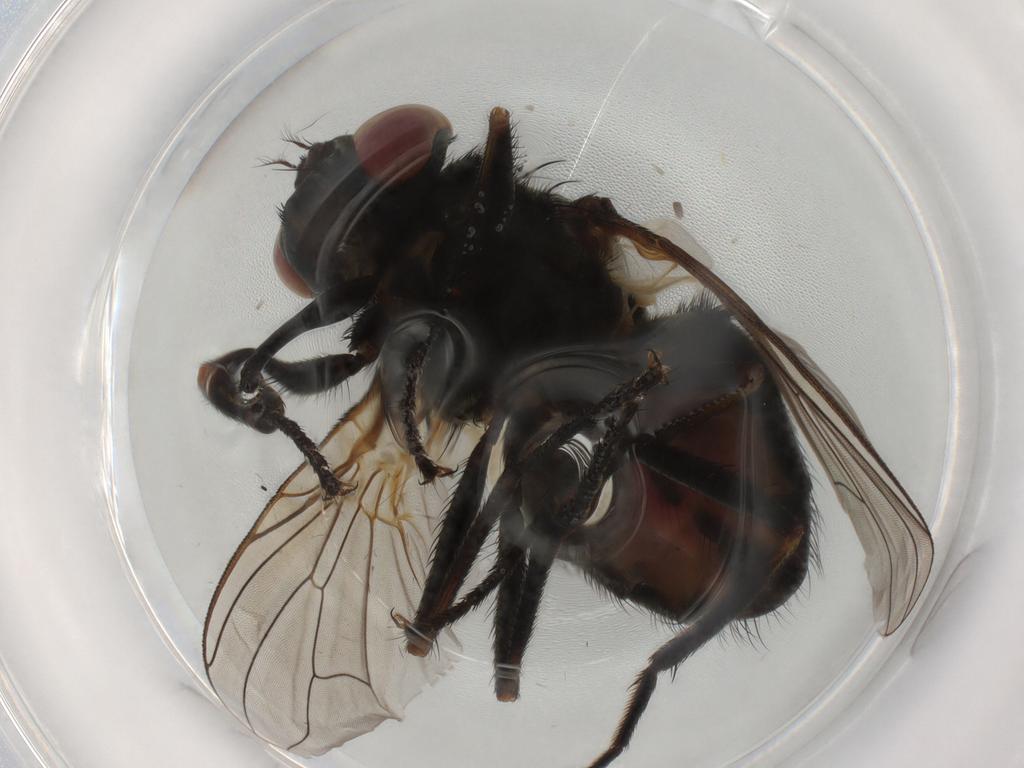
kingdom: Animalia
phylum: Arthropoda
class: Insecta
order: Diptera
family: Muscidae
